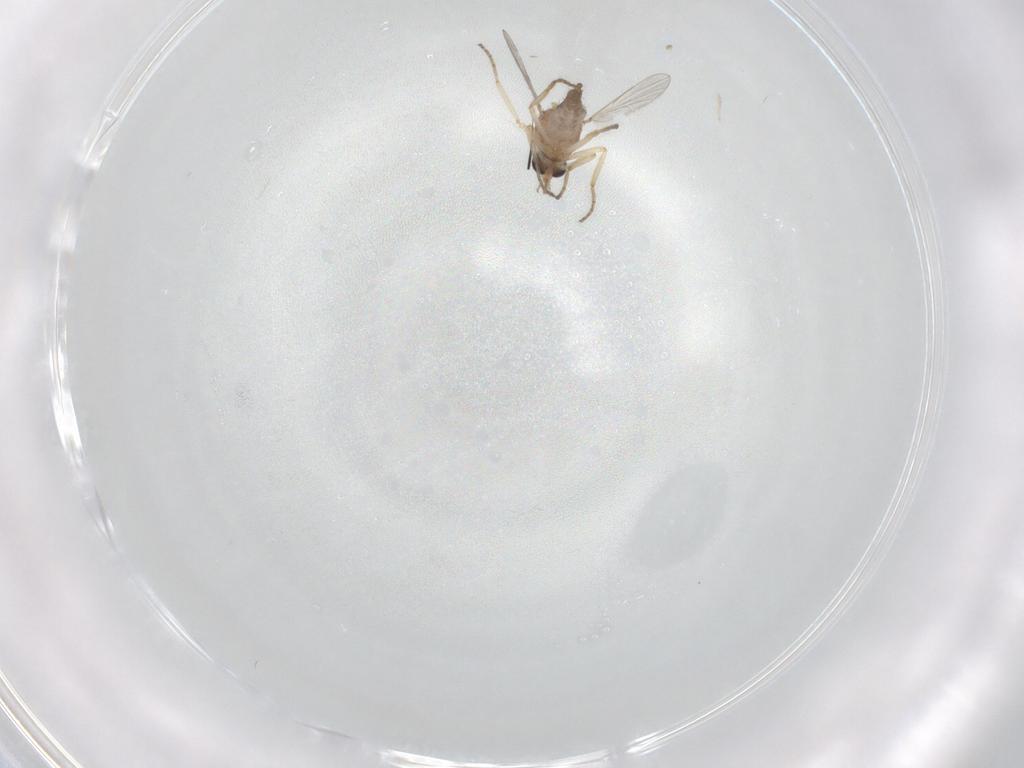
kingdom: Animalia
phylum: Arthropoda
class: Insecta
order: Diptera
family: Ceratopogonidae
